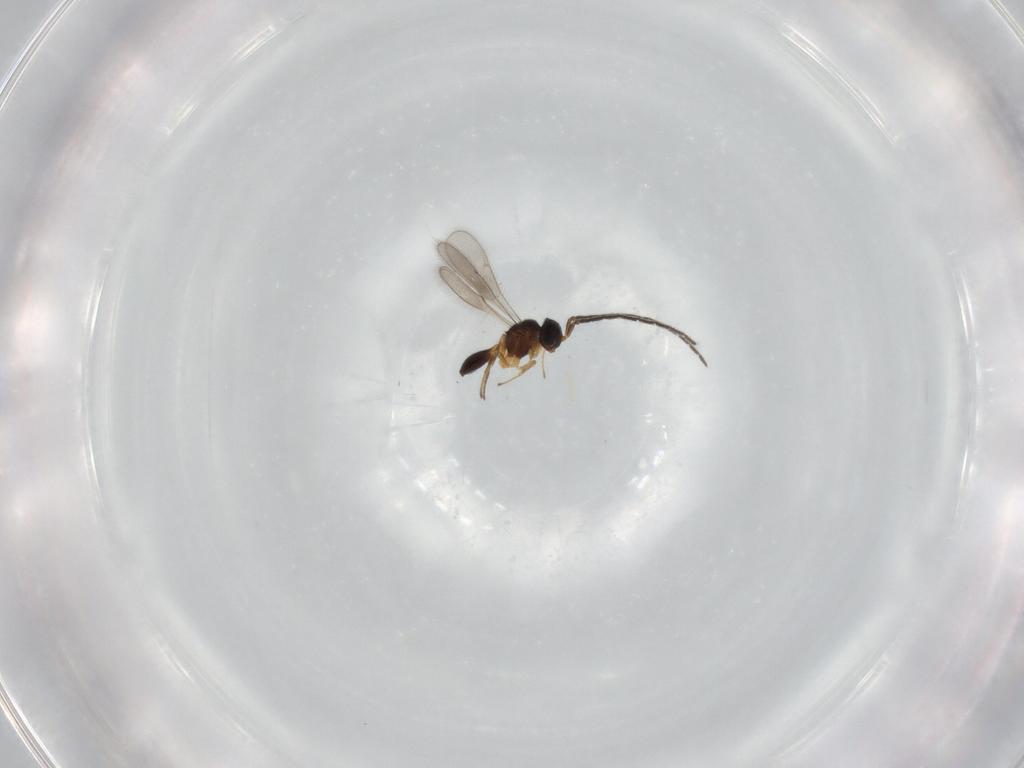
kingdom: Animalia
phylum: Arthropoda
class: Insecta
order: Hymenoptera
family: Scelionidae
